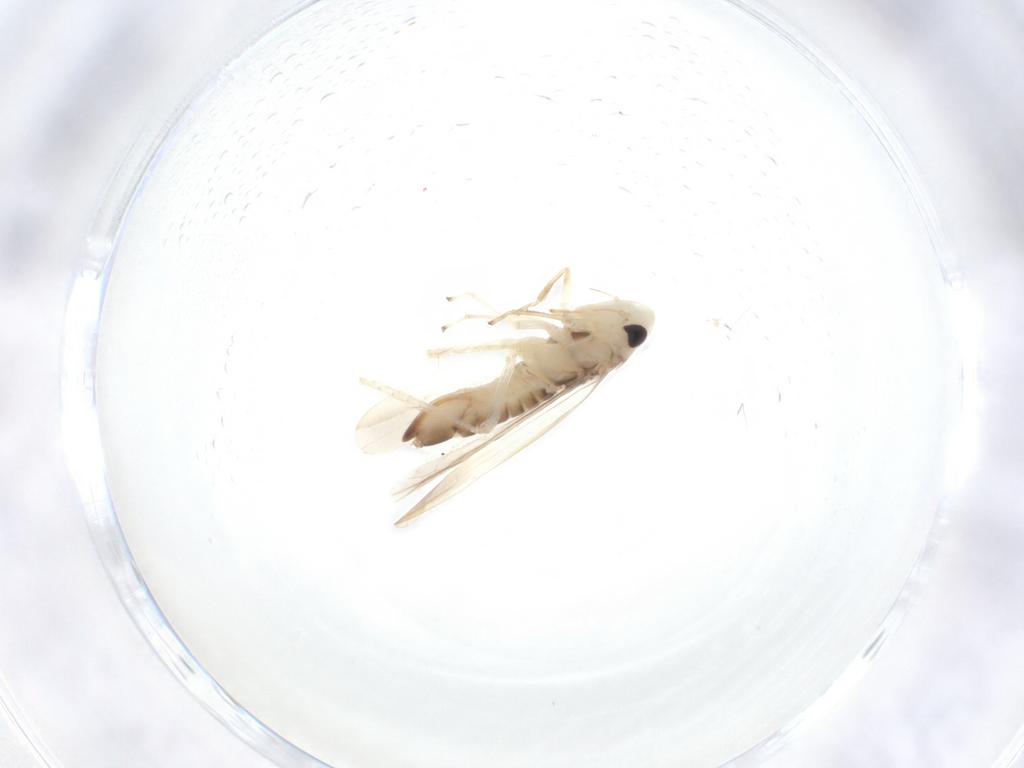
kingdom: Animalia
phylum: Arthropoda
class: Insecta
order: Hemiptera
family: Cicadellidae
